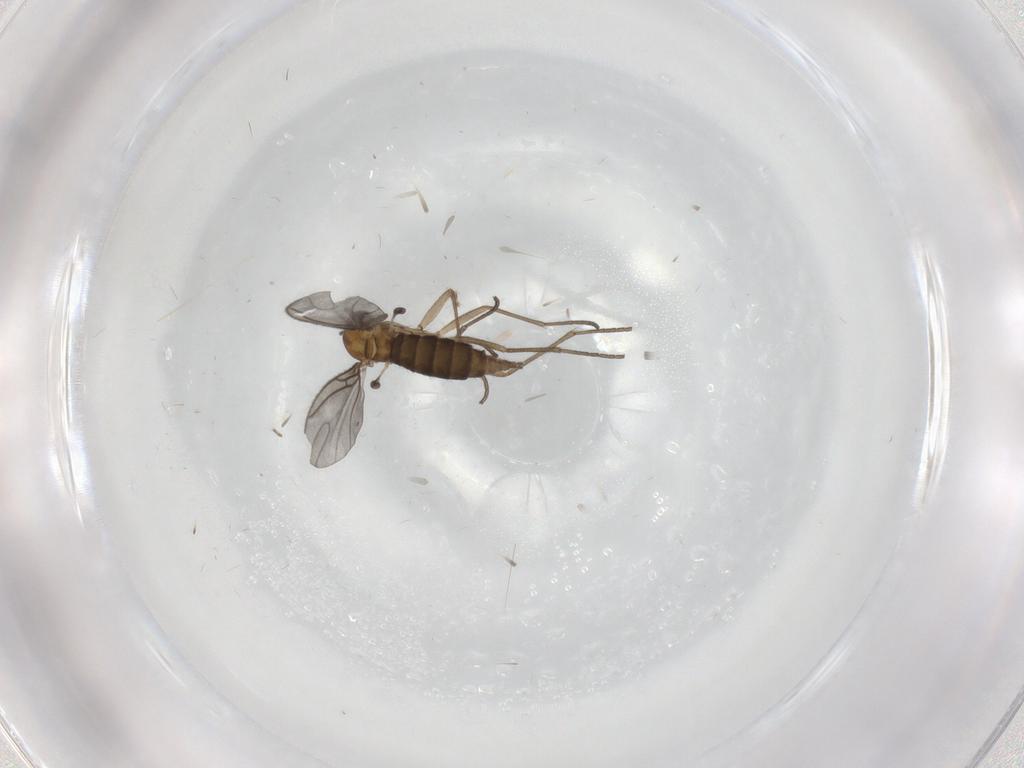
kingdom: Animalia
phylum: Arthropoda
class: Insecta
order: Diptera
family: Sciaridae
